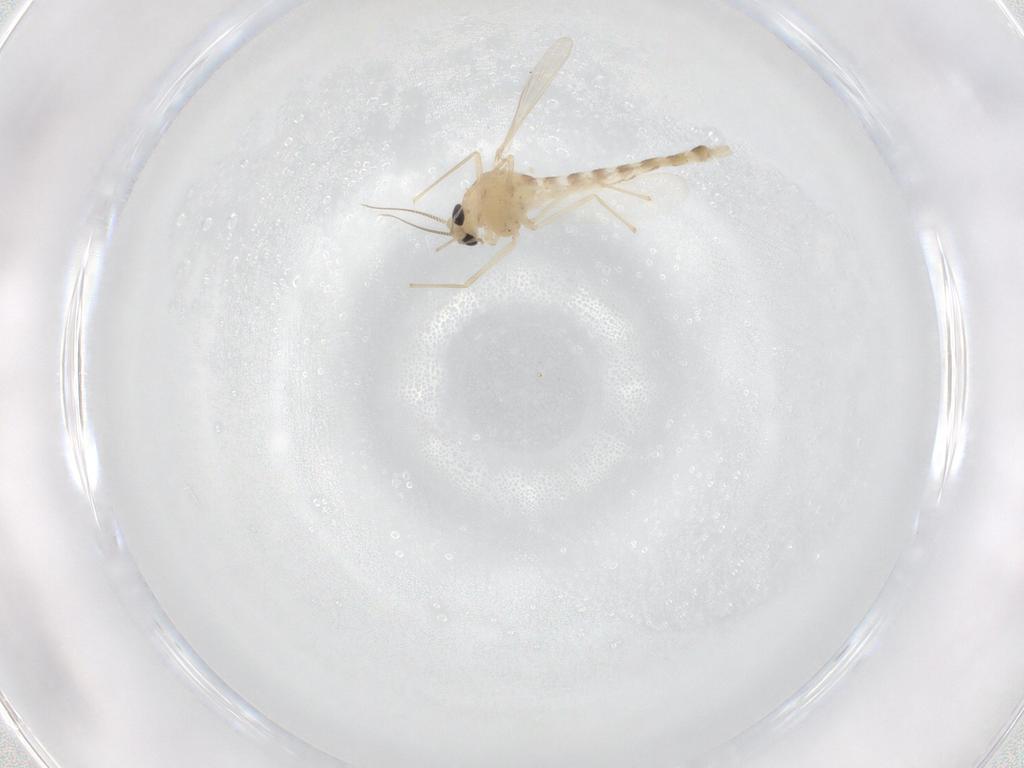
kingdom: Animalia
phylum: Arthropoda
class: Insecta
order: Diptera
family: Chironomidae
